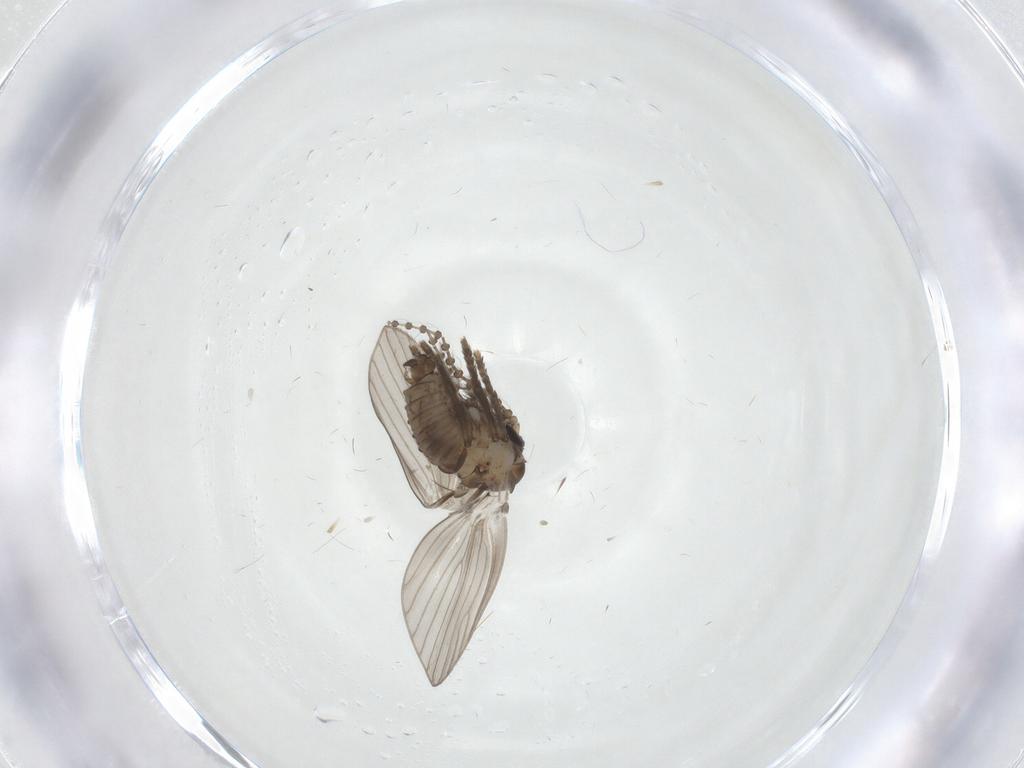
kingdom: Animalia
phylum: Arthropoda
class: Insecta
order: Diptera
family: Psychodidae
